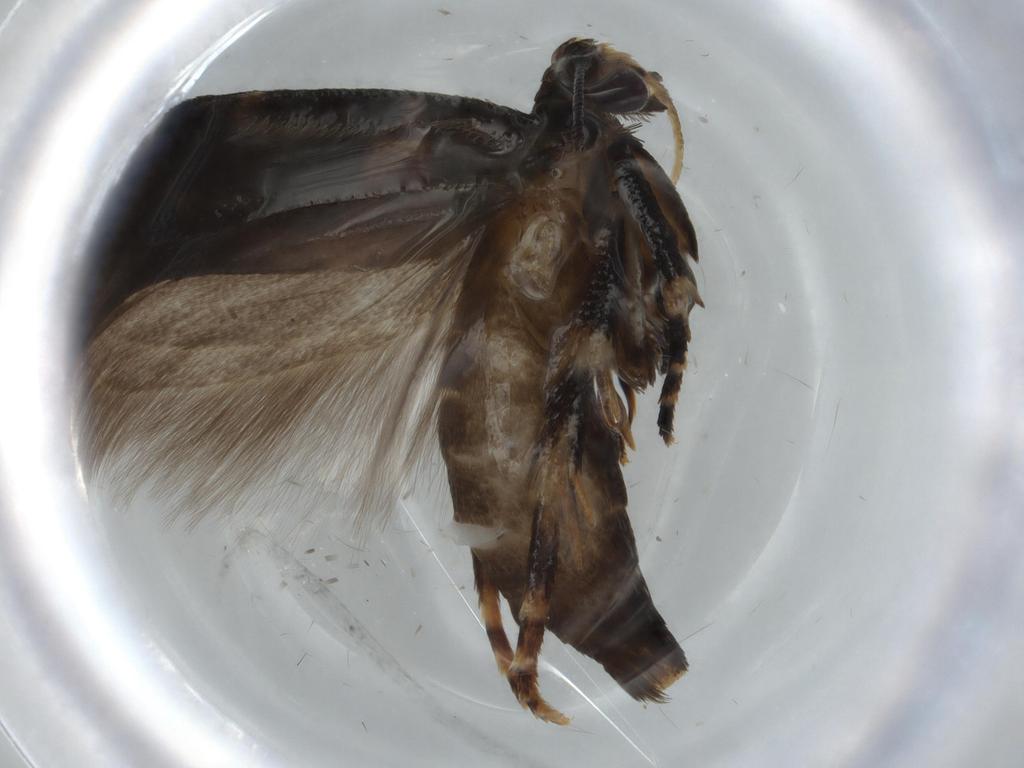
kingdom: Animalia
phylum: Arthropoda
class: Insecta
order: Lepidoptera
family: Gelechiidae
